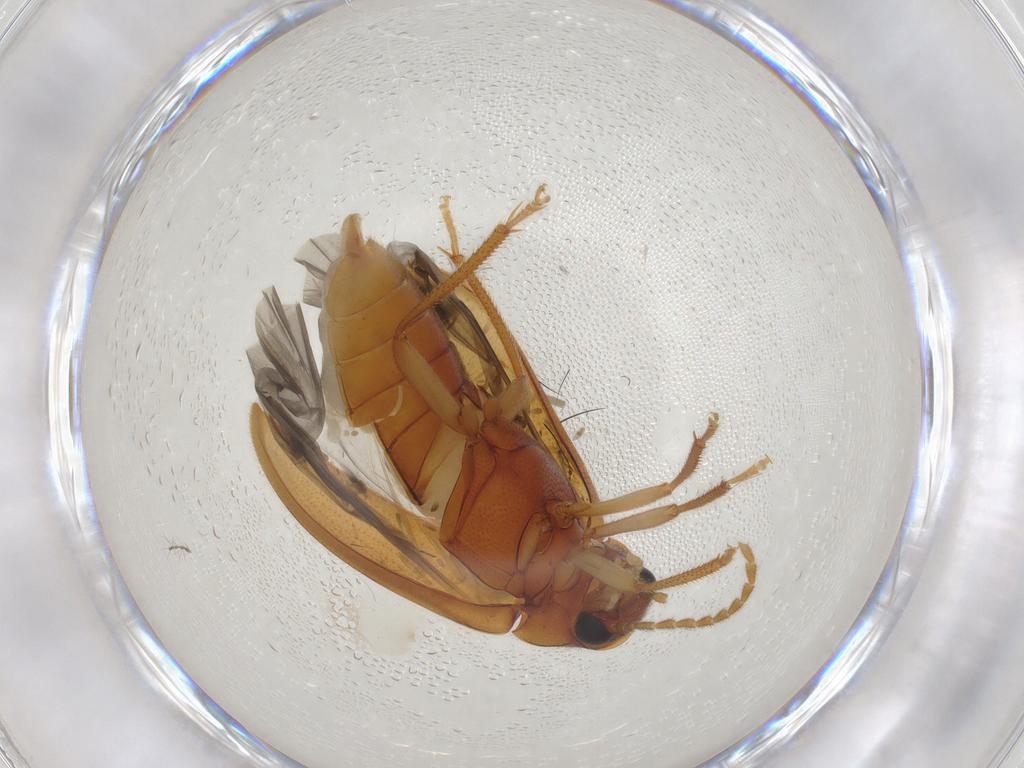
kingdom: Animalia
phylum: Arthropoda
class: Insecta
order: Coleoptera
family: Ptilodactylidae
